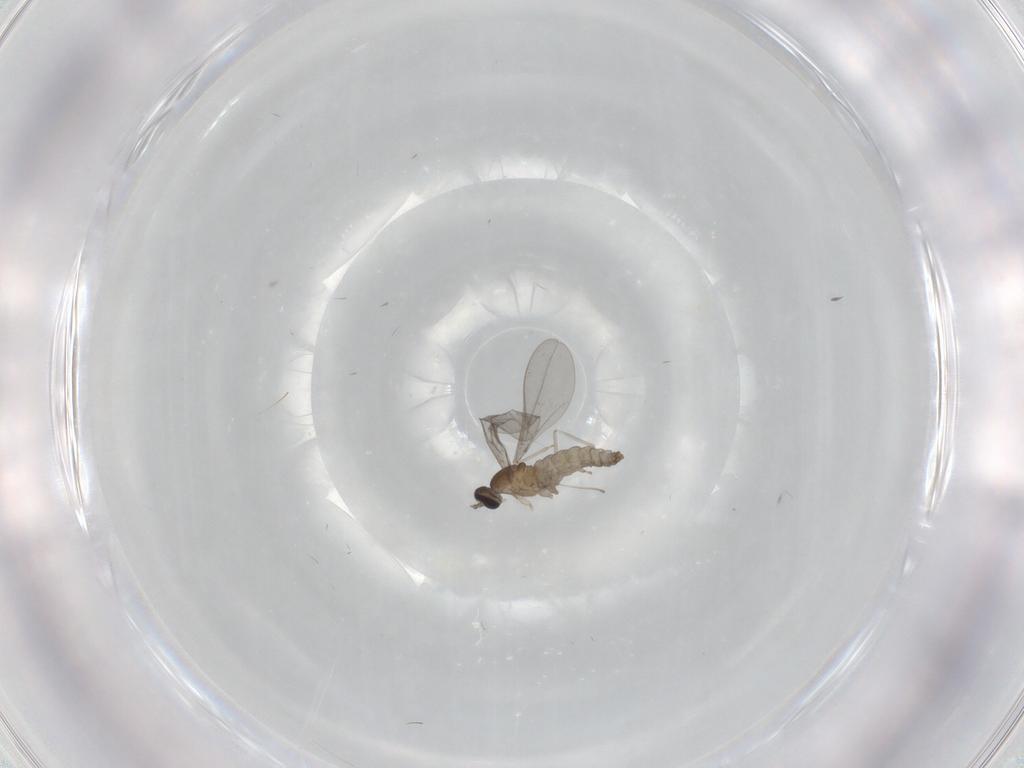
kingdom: Animalia
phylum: Arthropoda
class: Insecta
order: Diptera
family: Cecidomyiidae
